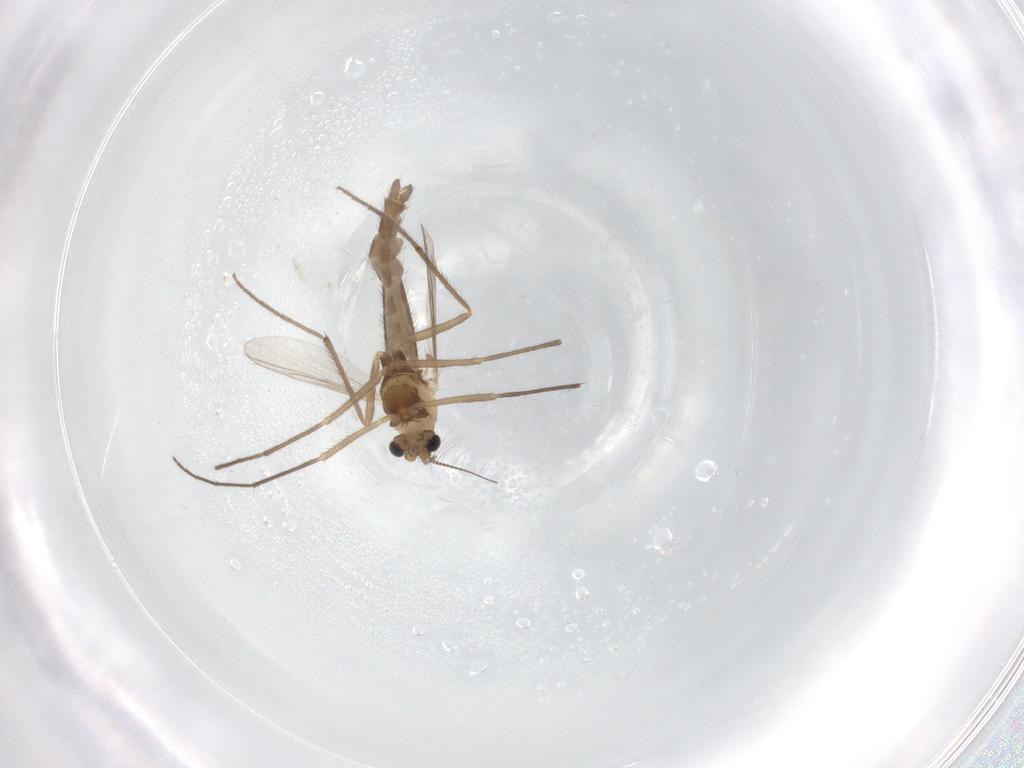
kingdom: Animalia
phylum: Arthropoda
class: Insecta
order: Diptera
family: Chironomidae
